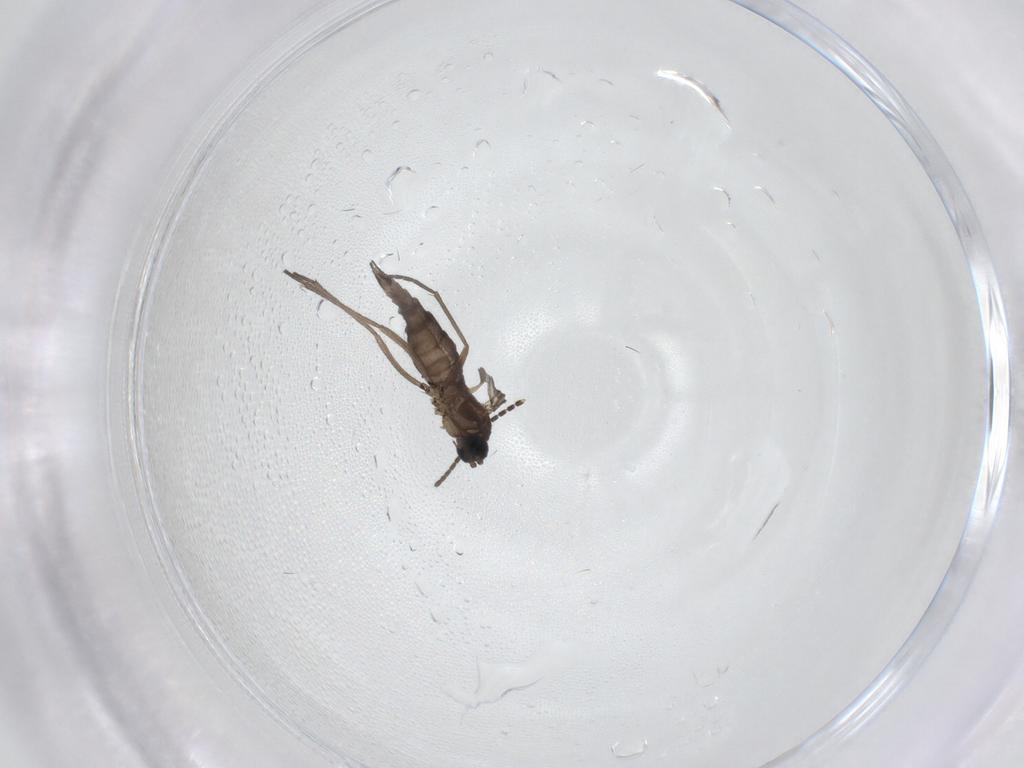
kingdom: Animalia
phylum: Arthropoda
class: Insecta
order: Diptera
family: Sciaridae
